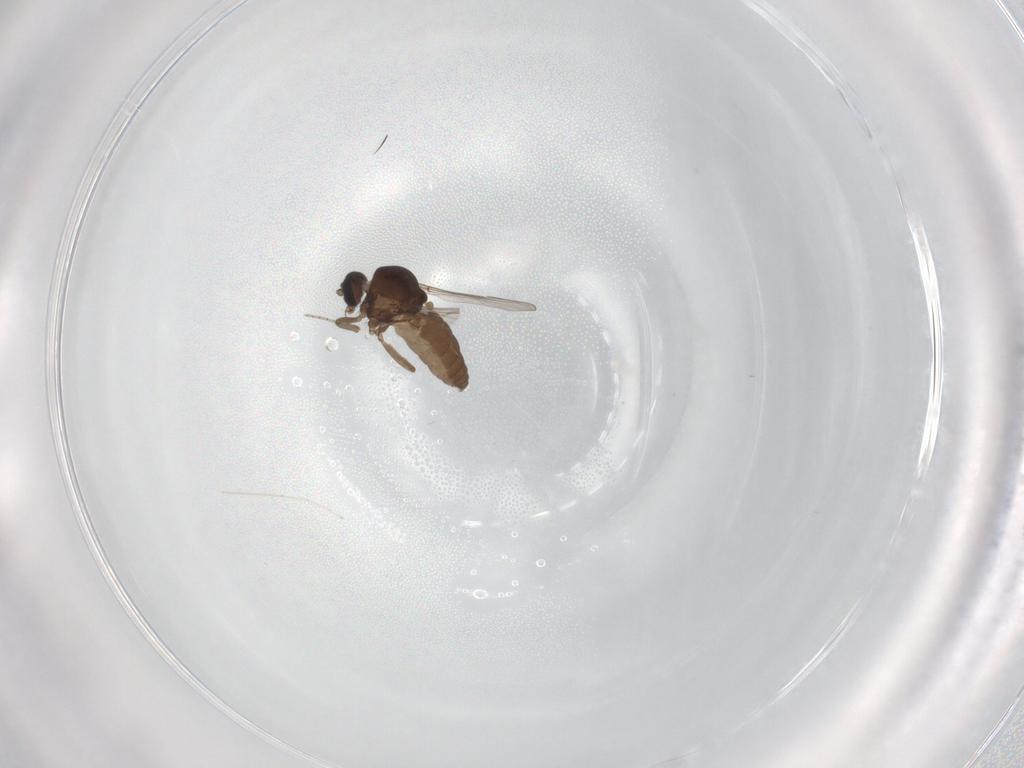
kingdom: Animalia
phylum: Arthropoda
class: Insecta
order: Diptera
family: Ceratopogonidae
